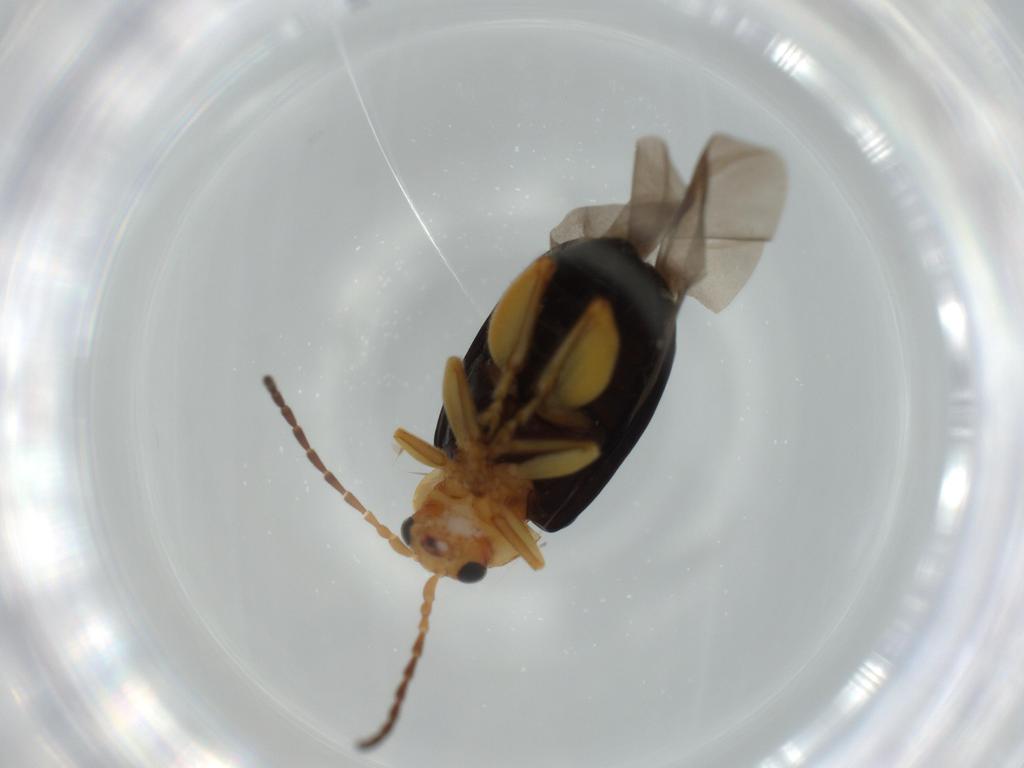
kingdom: Animalia
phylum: Arthropoda
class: Insecta
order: Coleoptera
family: Chrysomelidae
